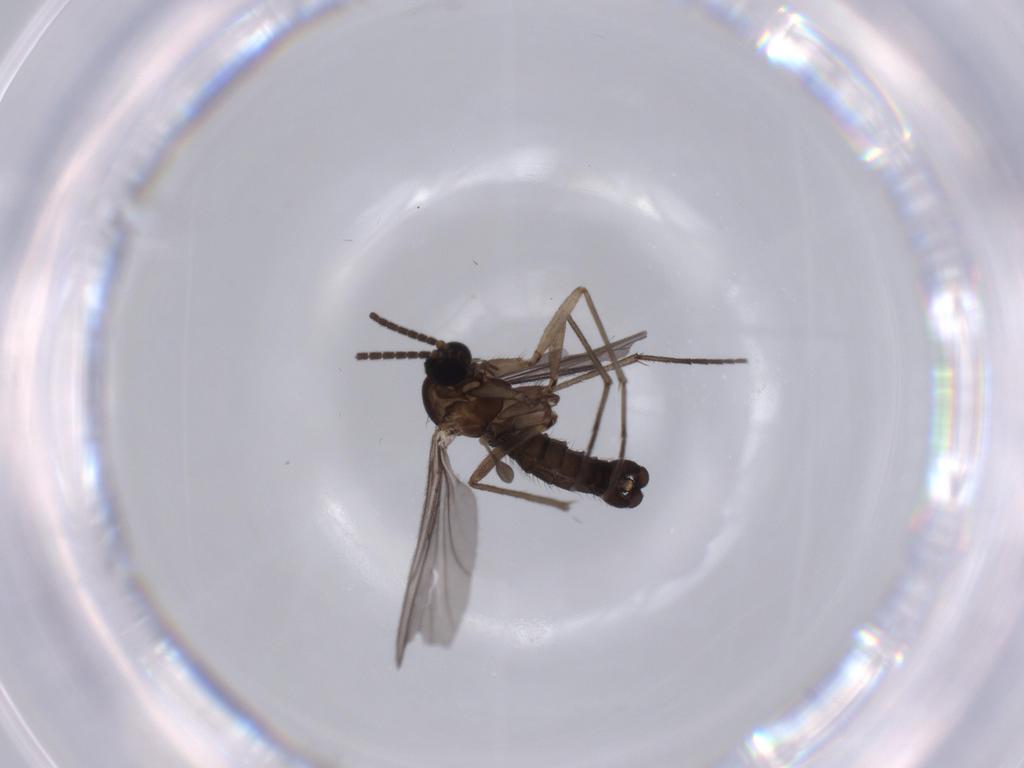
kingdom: Animalia
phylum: Arthropoda
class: Insecta
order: Diptera
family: Sciaridae
